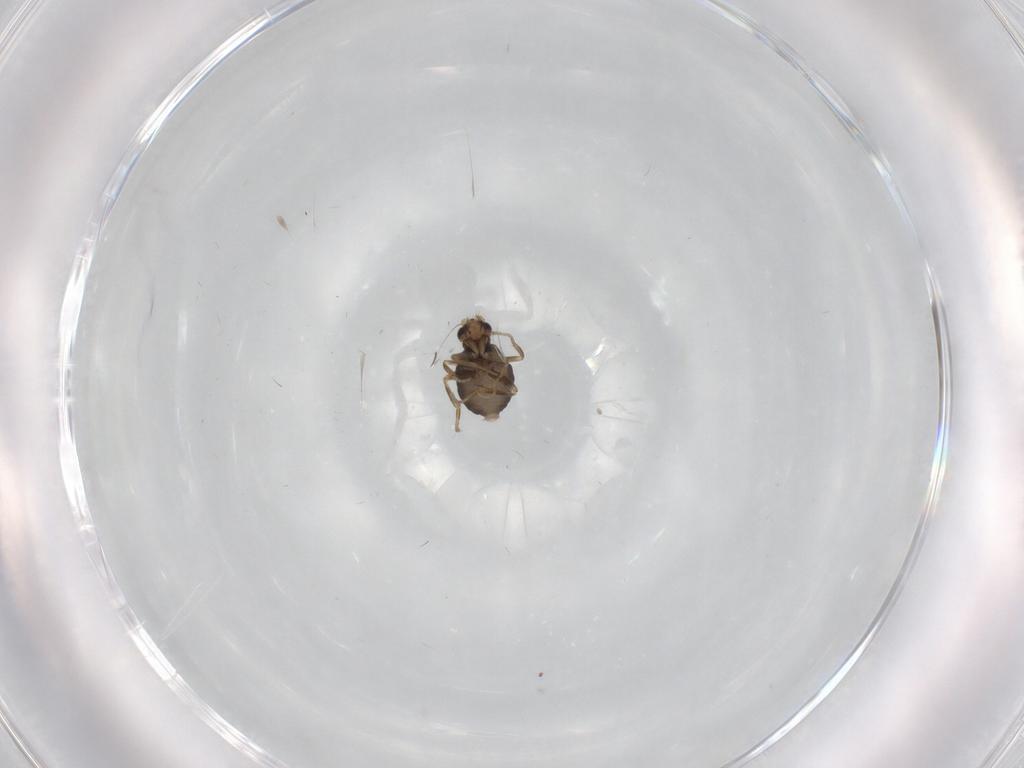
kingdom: Animalia
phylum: Arthropoda
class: Insecta
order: Diptera
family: Phoridae
